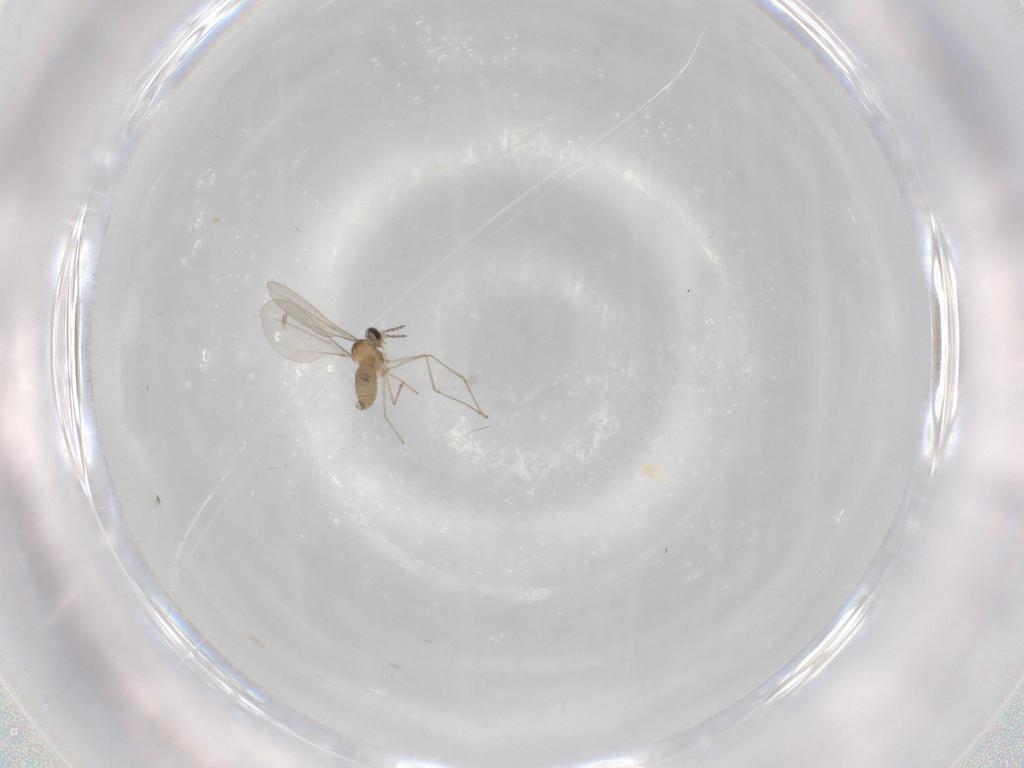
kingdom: Animalia
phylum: Arthropoda
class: Insecta
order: Diptera
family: Cecidomyiidae
